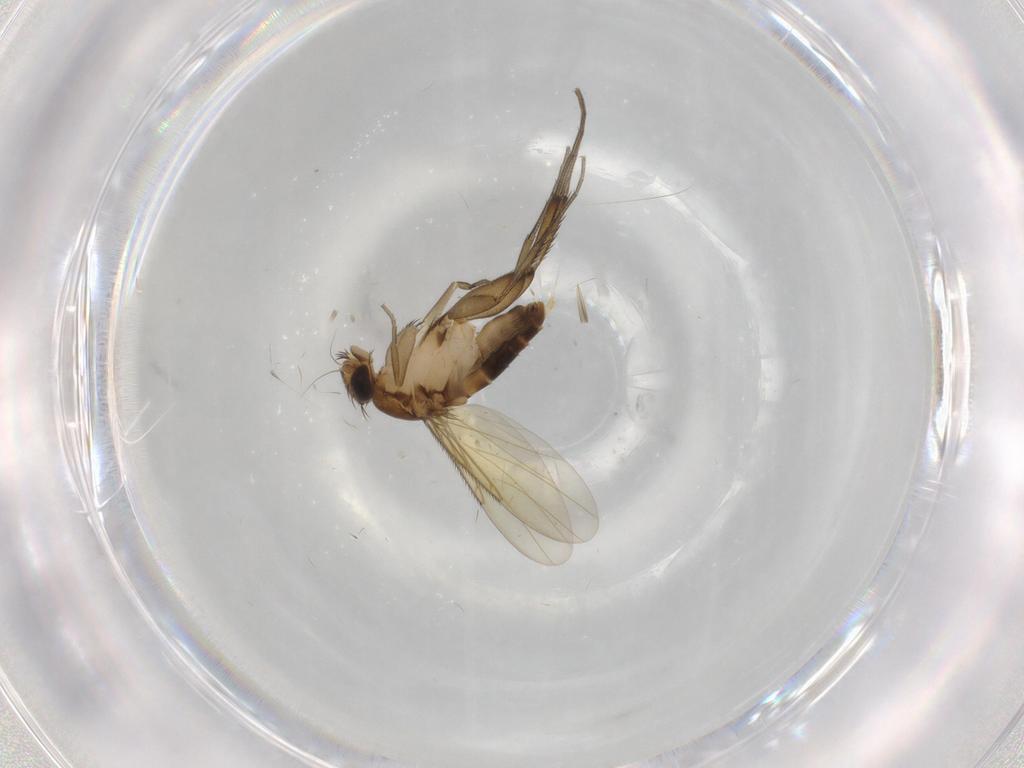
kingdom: Animalia
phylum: Arthropoda
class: Insecta
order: Diptera
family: Phoridae
